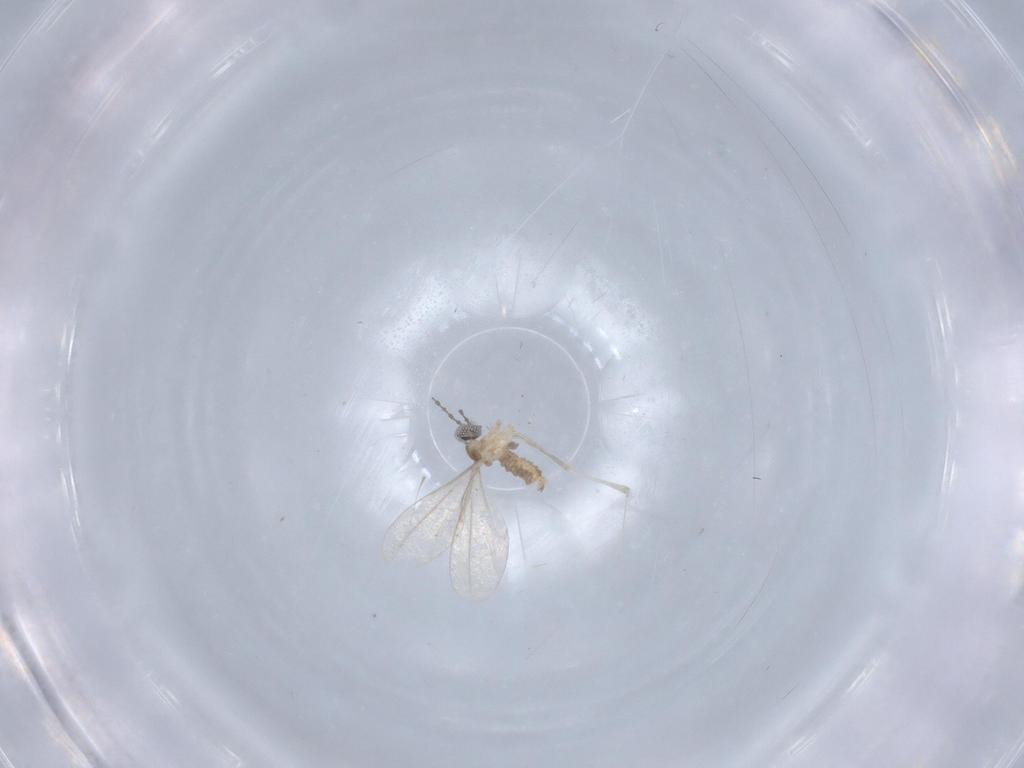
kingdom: Animalia
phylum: Arthropoda
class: Insecta
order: Diptera
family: Cecidomyiidae
